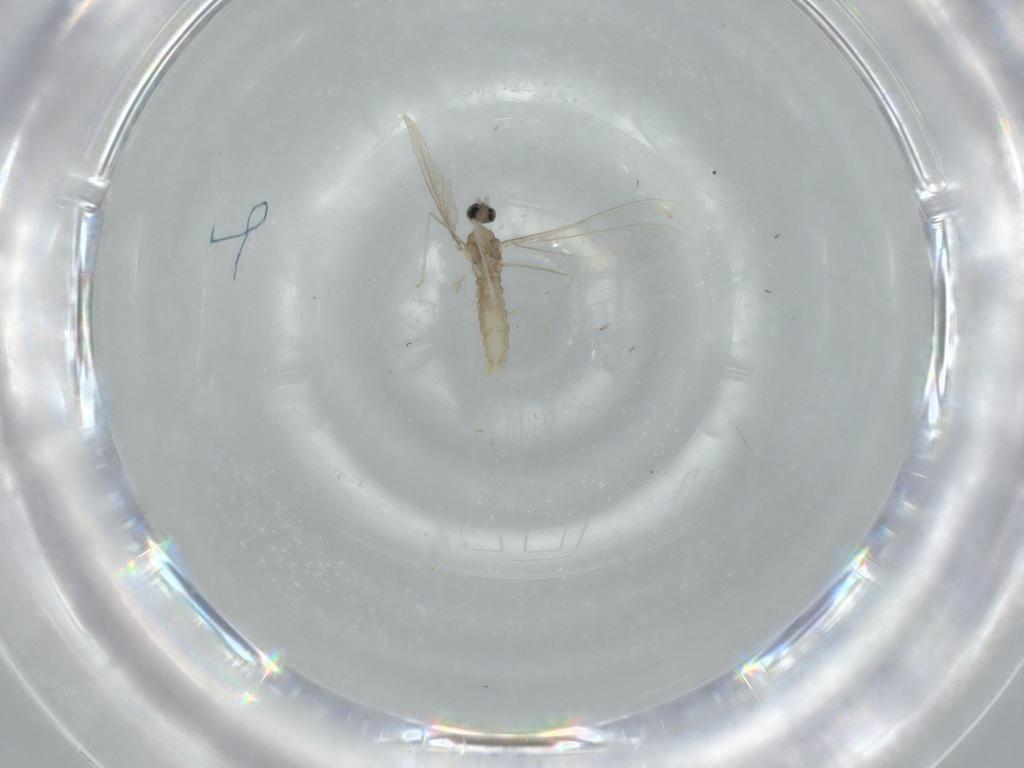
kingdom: Animalia
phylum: Arthropoda
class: Insecta
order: Diptera
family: Cecidomyiidae
